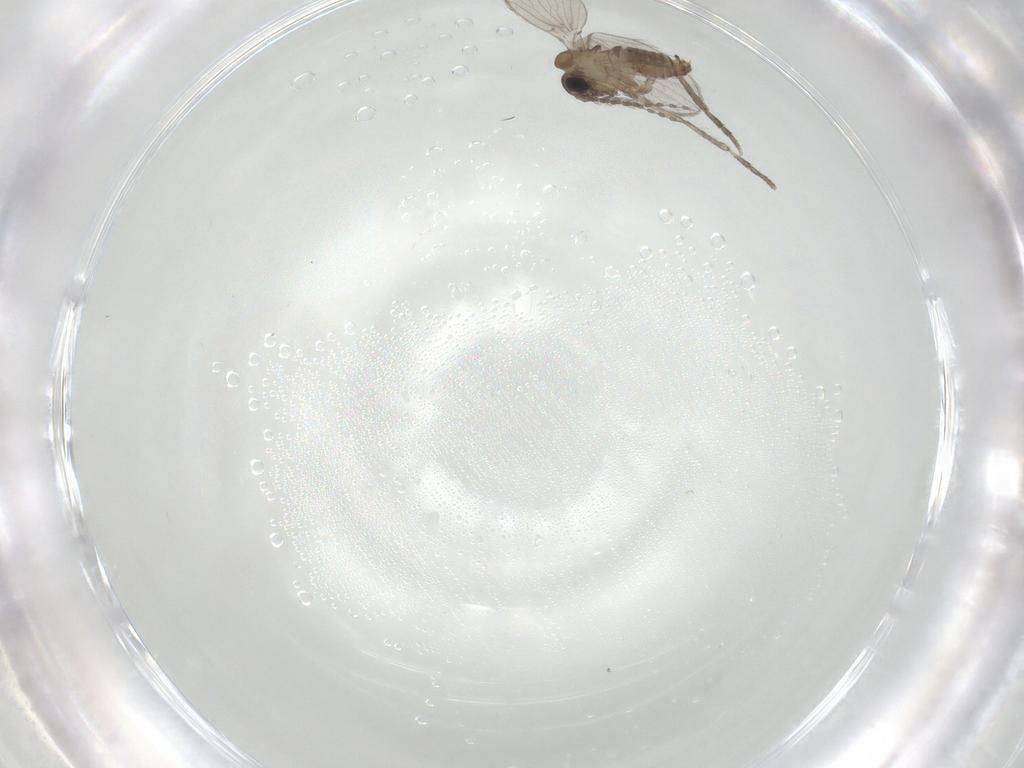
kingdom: Animalia
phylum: Arthropoda
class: Insecta
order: Diptera
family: Psychodidae
